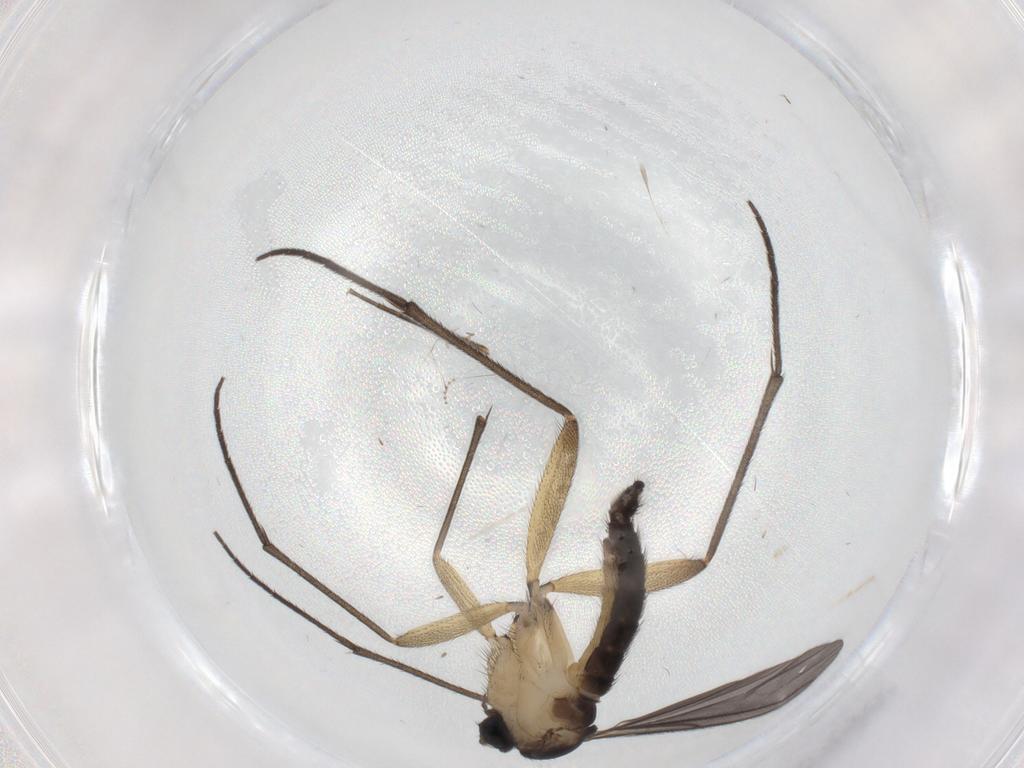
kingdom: Animalia
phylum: Arthropoda
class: Insecta
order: Diptera
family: Sciaridae
